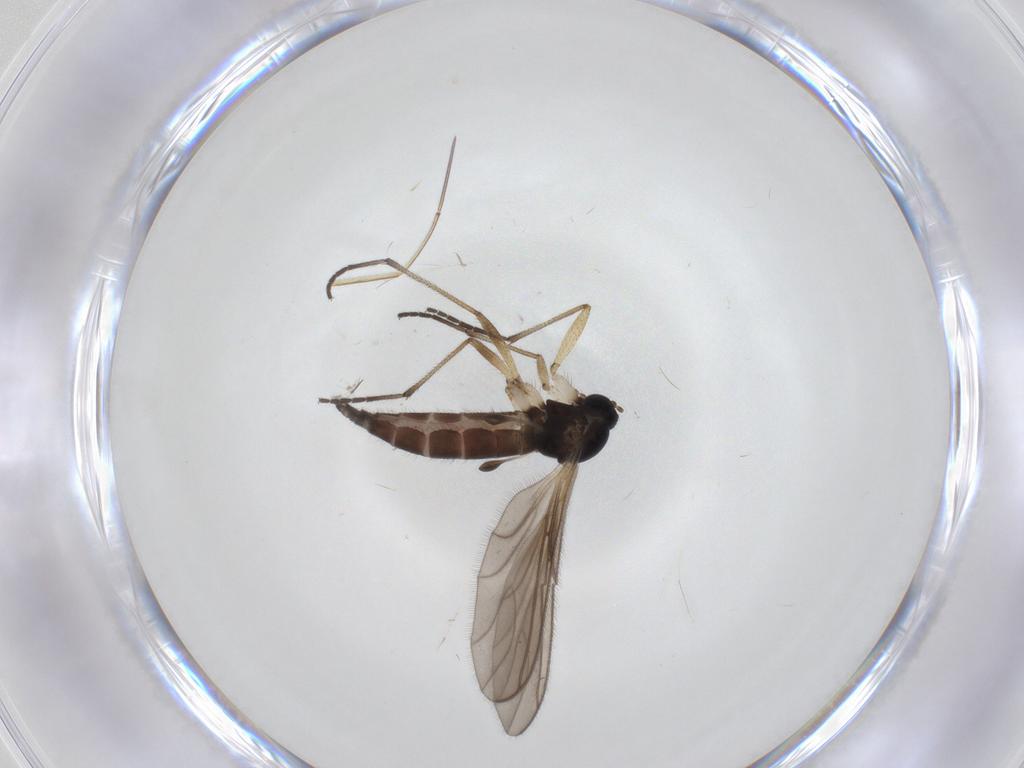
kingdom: Animalia
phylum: Arthropoda
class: Insecta
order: Diptera
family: Sciaridae
